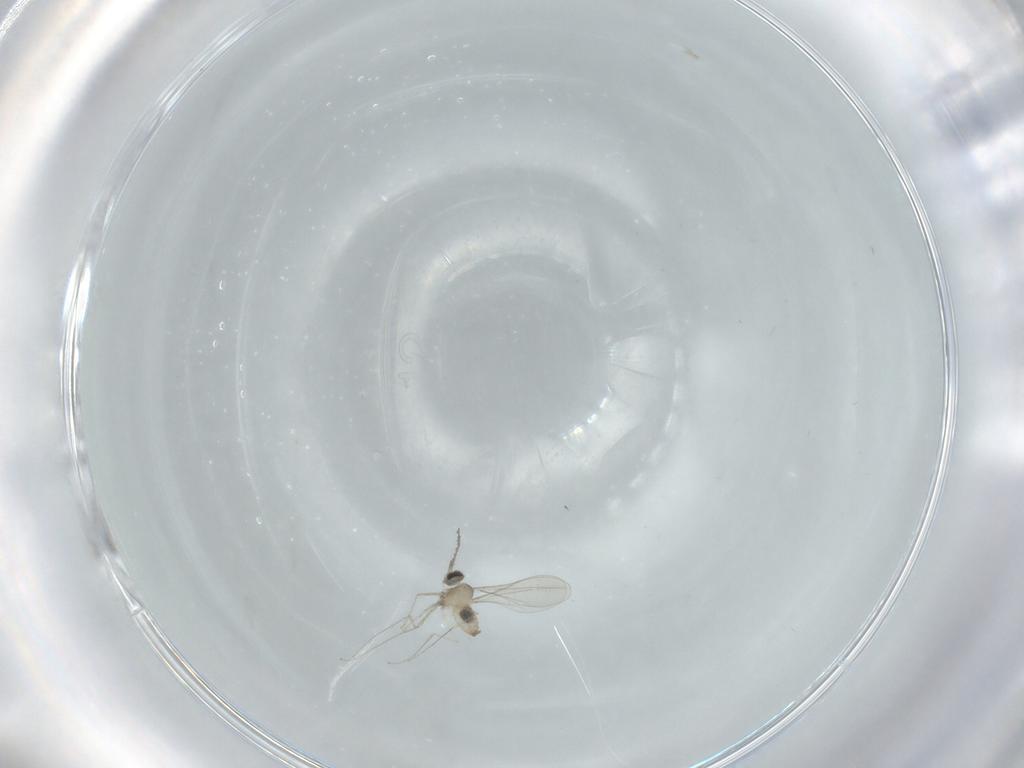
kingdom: Animalia
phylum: Arthropoda
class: Insecta
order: Diptera
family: Cecidomyiidae
